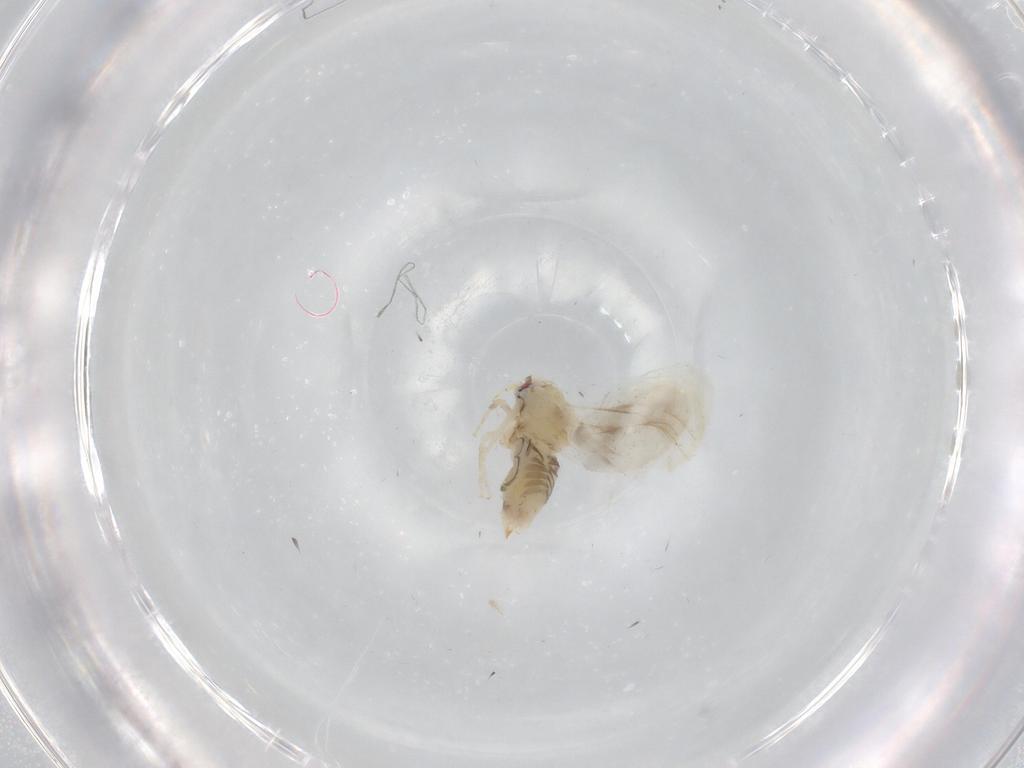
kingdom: Animalia
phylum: Arthropoda
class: Insecta
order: Hemiptera
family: Aleyrodidae
